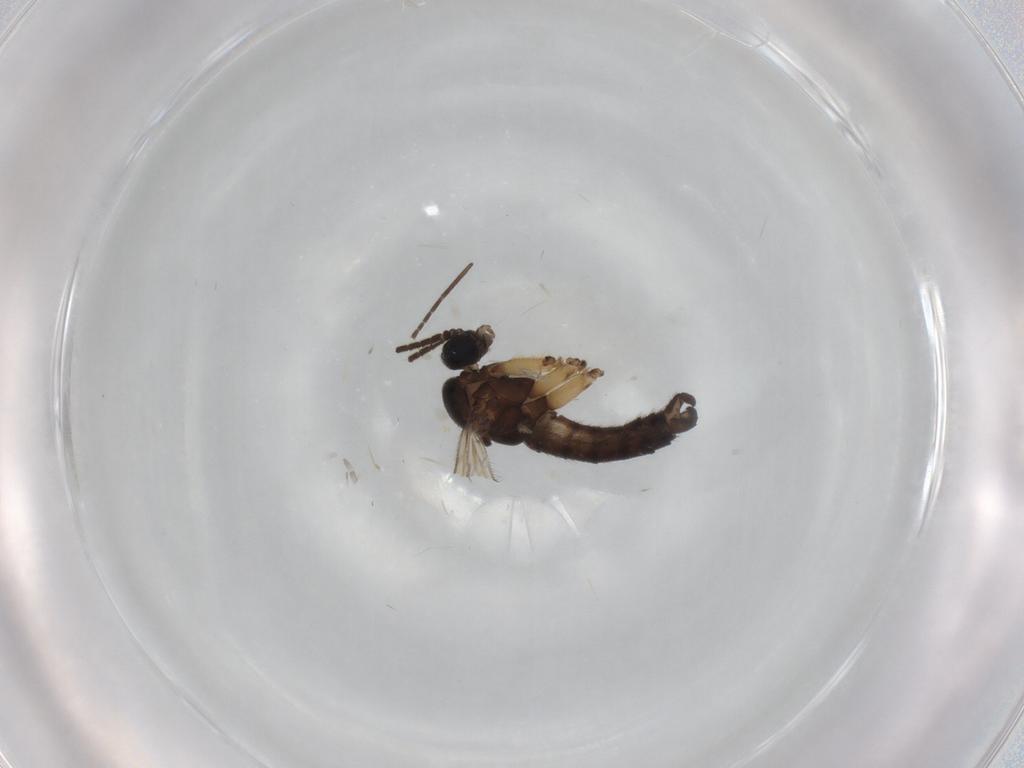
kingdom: Animalia
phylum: Arthropoda
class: Insecta
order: Diptera
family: Sciaridae
